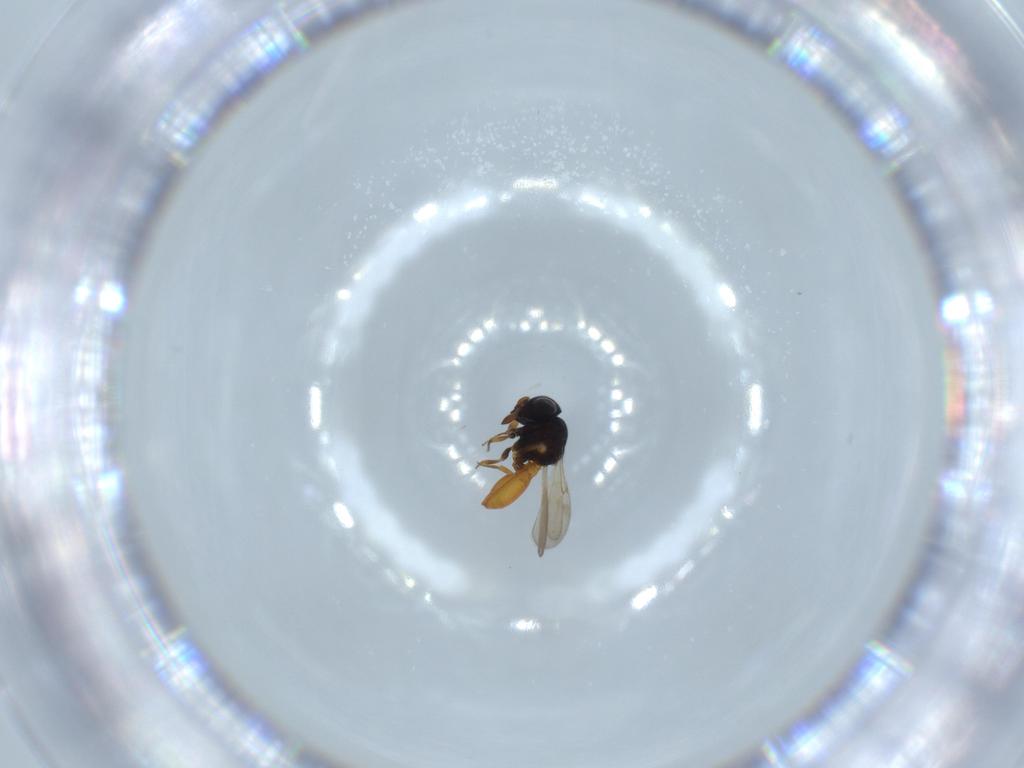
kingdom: Animalia
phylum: Arthropoda
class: Insecta
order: Hymenoptera
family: Scelionidae
